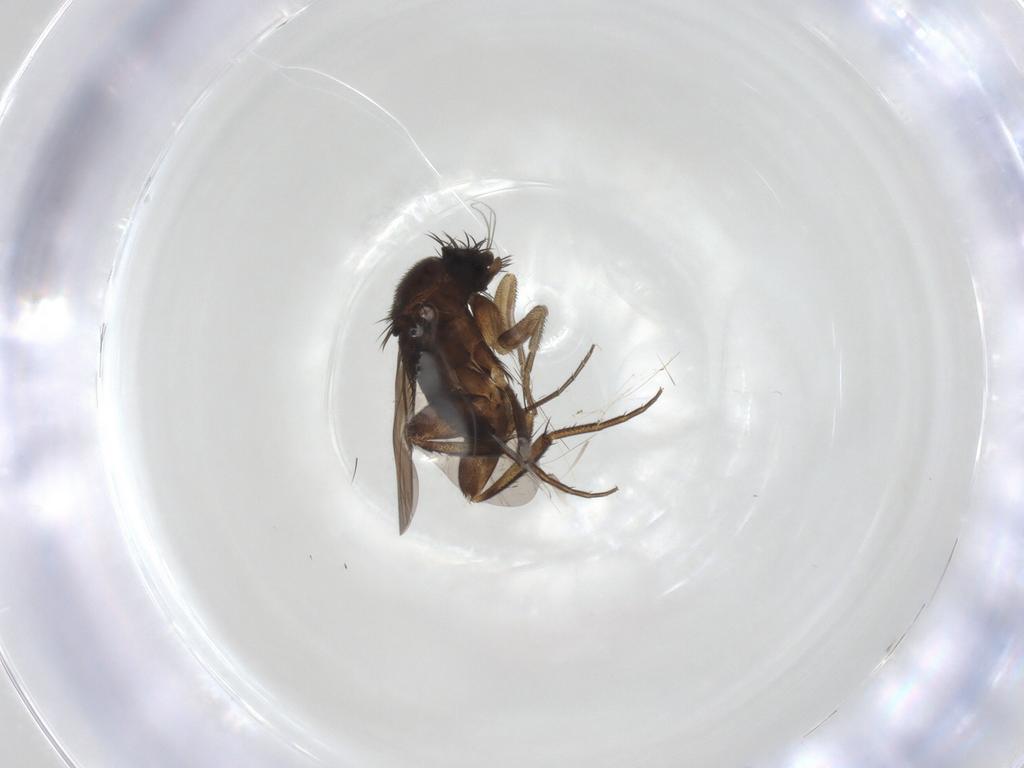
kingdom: Animalia
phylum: Arthropoda
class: Insecta
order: Diptera
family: Phoridae
